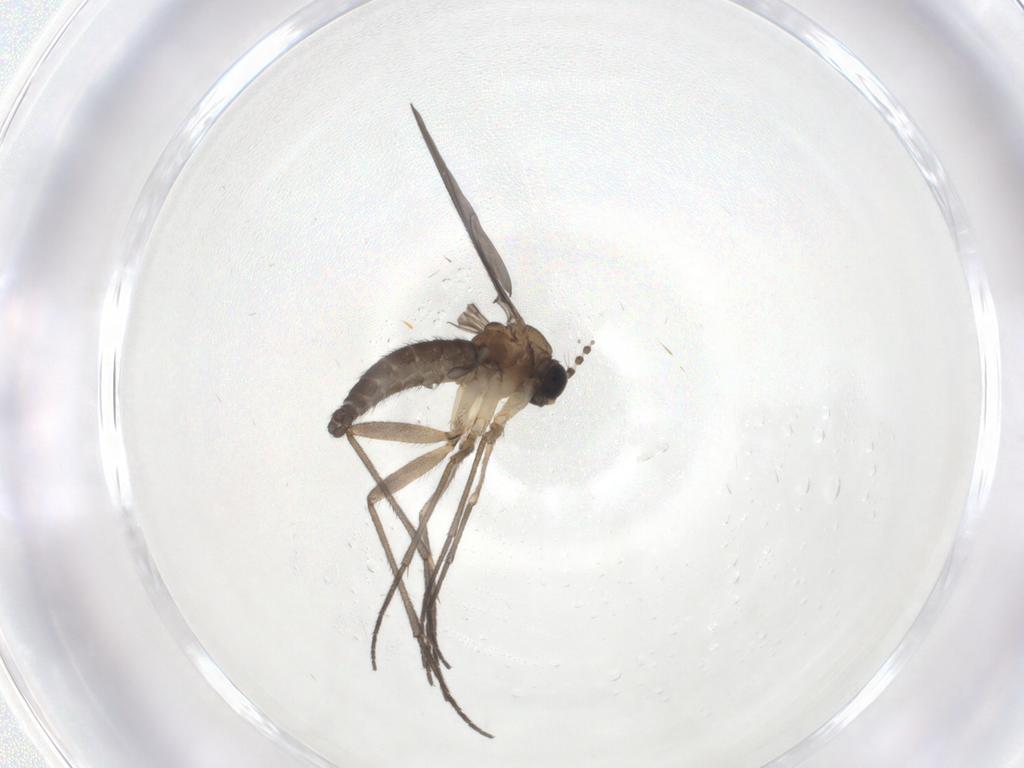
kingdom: Animalia
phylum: Arthropoda
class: Insecta
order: Diptera
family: Sciaridae
